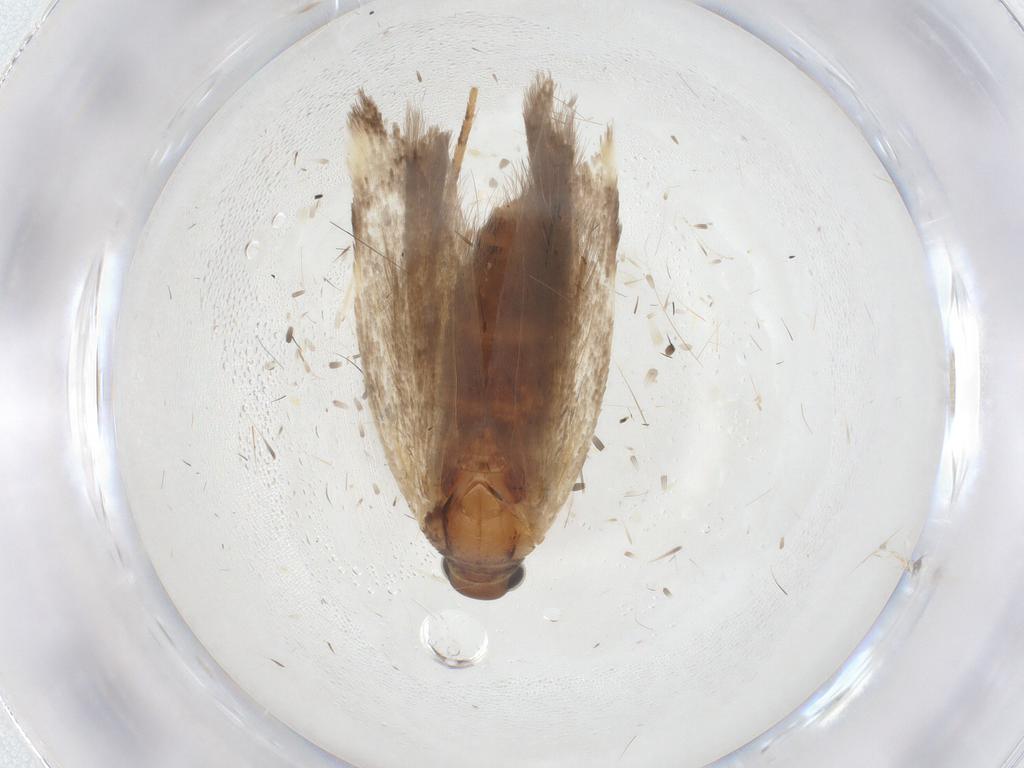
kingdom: Animalia
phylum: Arthropoda
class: Insecta
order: Lepidoptera
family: Gelechiidae
